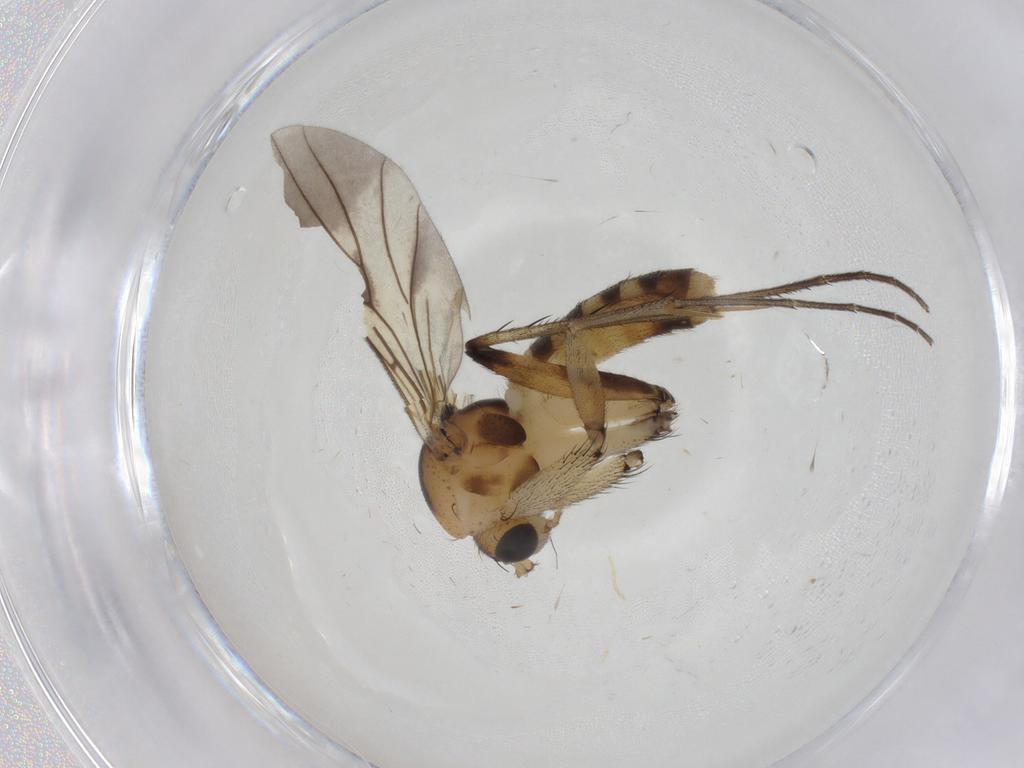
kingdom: Animalia
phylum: Arthropoda
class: Insecta
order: Diptera
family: Mycetophilidae
